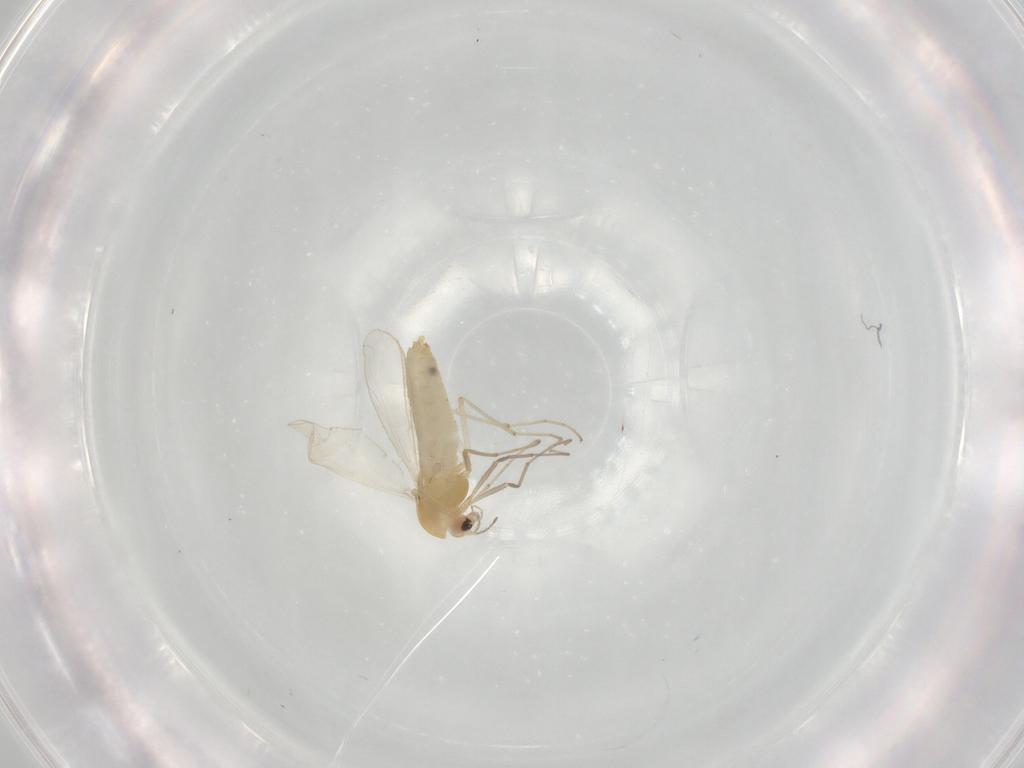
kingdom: Animalia
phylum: Arthropoda
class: Insecta
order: Diptera
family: Chironomidae
